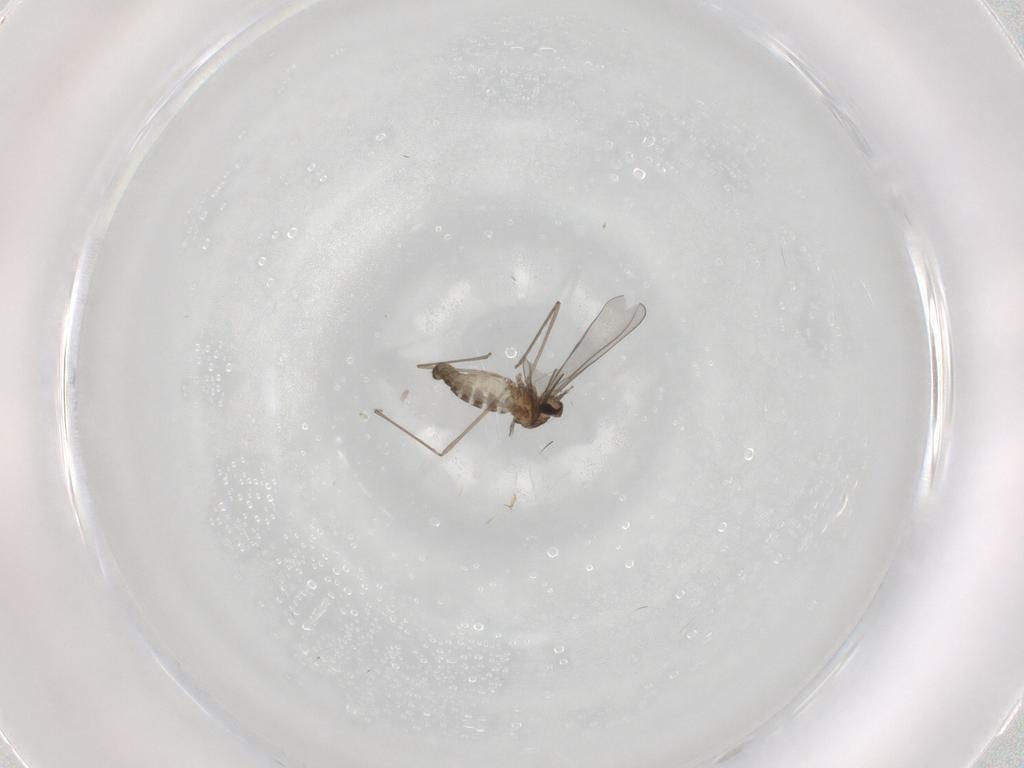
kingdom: Animalia
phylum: Arthropoda
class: Insecta
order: Diptera
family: Cecidomyiidae
